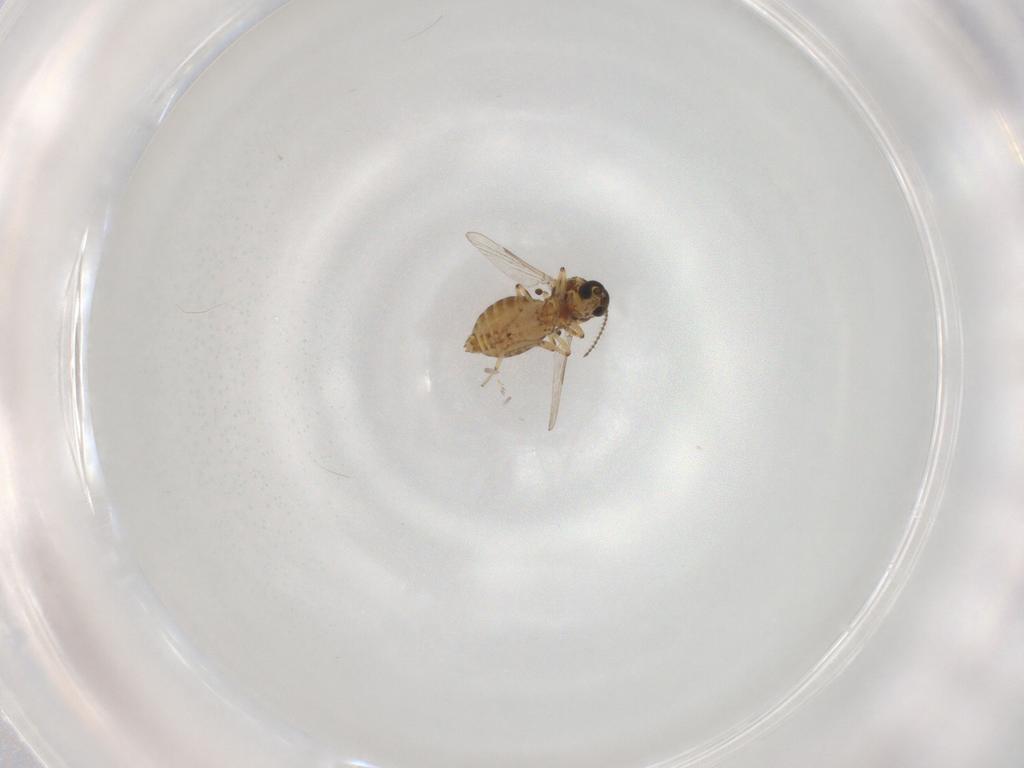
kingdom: Animalia
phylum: Arthropoda
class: Insecta
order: Diptera
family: Ceratopogonidae
